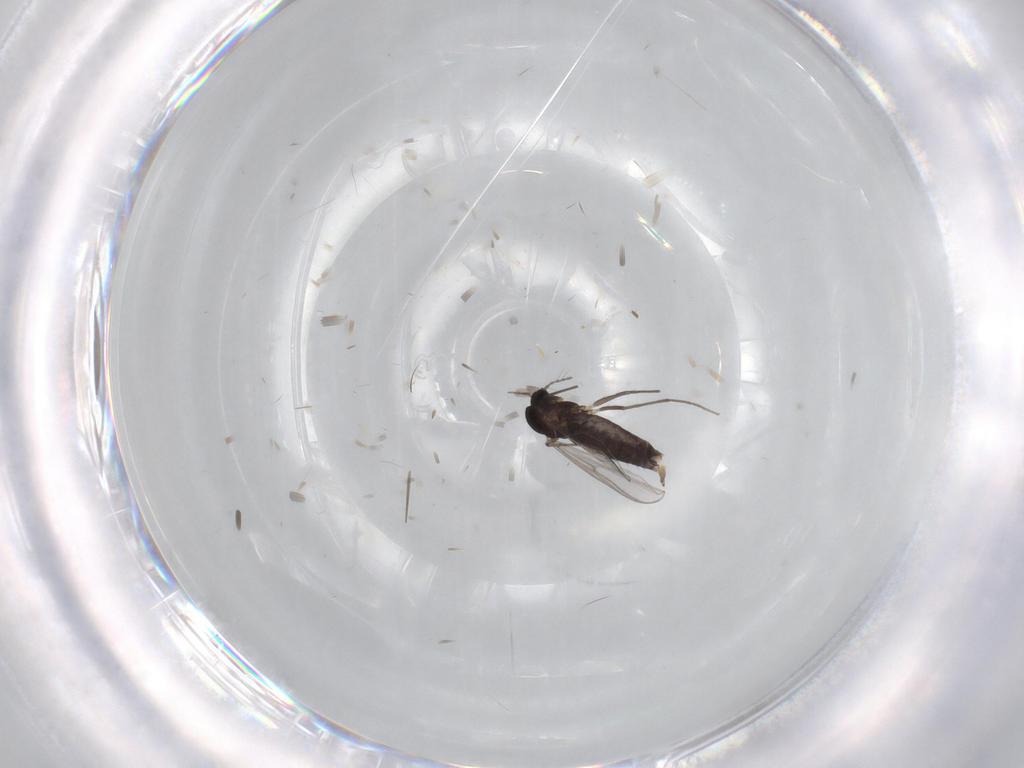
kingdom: Animalia
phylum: Arthropoda
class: Insecta
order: Diptera
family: Chironomidae
